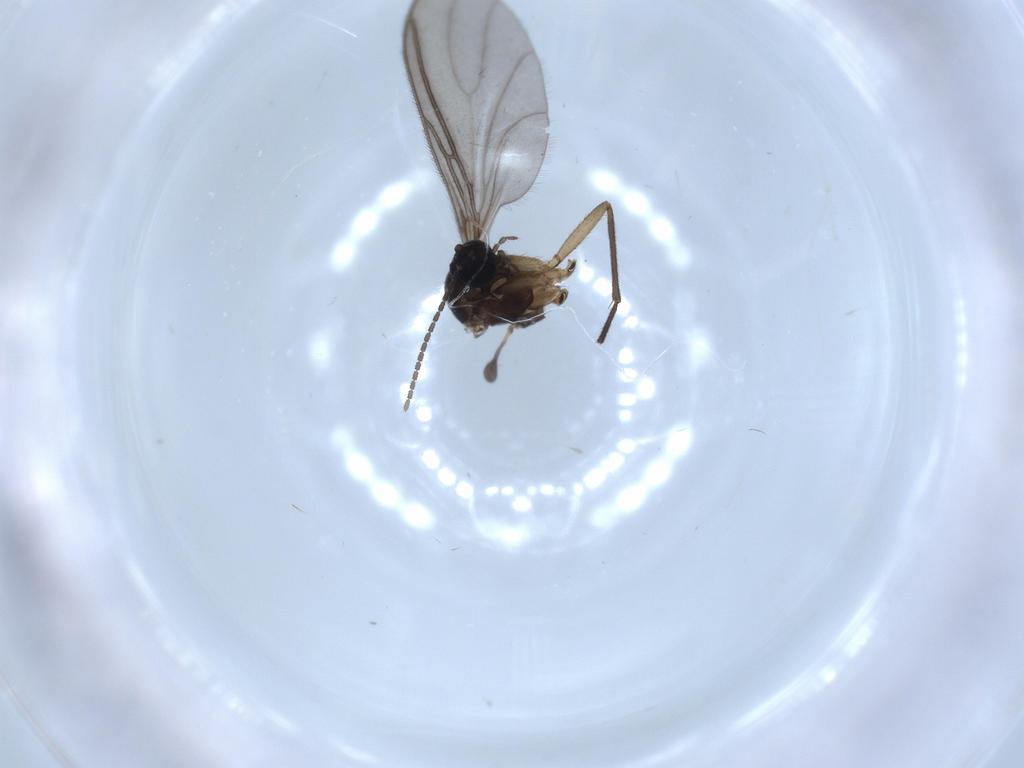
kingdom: Animalia
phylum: Arthropoda
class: Insecta
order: Diptera
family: Sciaridae
